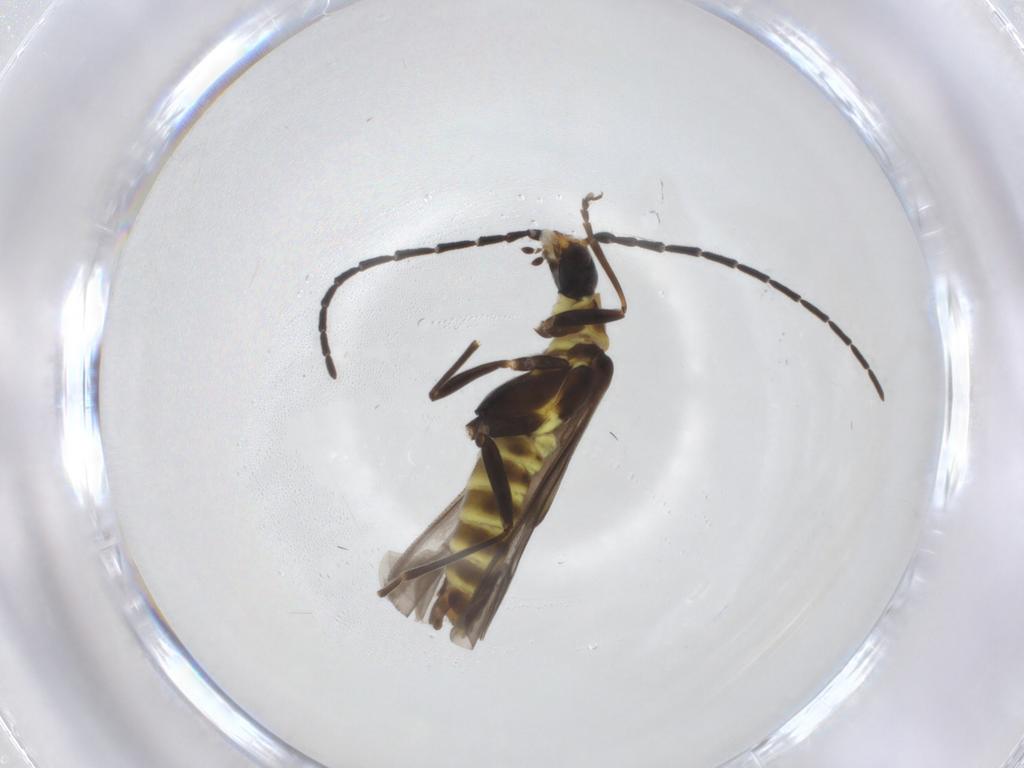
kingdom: Animalia
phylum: Arthropoda
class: Insecta
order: Coleoptera
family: Cantharidae
